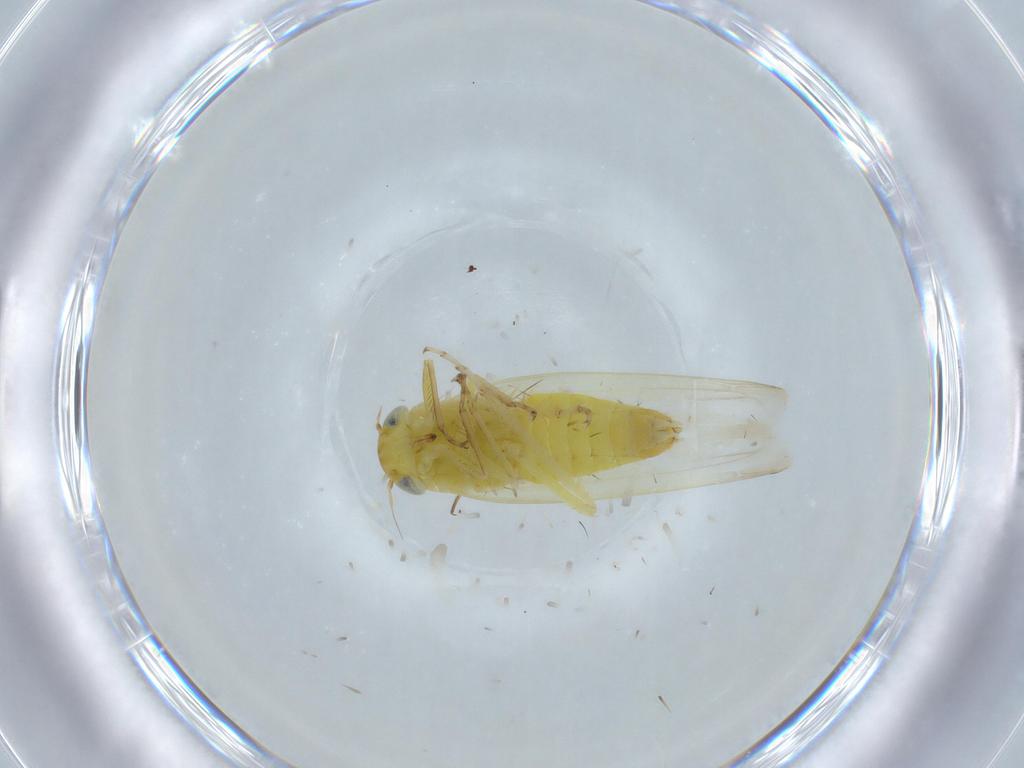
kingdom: Animalia
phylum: Arthropoda
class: Insecta
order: Hemiptera
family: Cicadellidae
